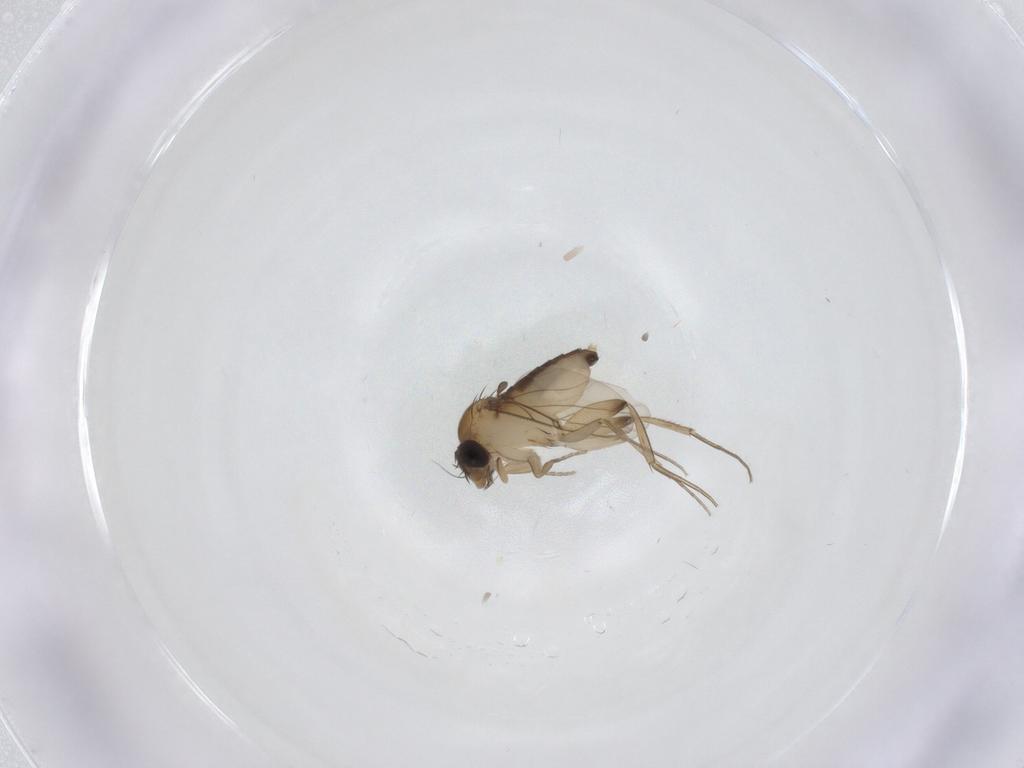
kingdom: Animalia
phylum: Arthropoda
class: Insecta
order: Diptera
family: Phoridae
